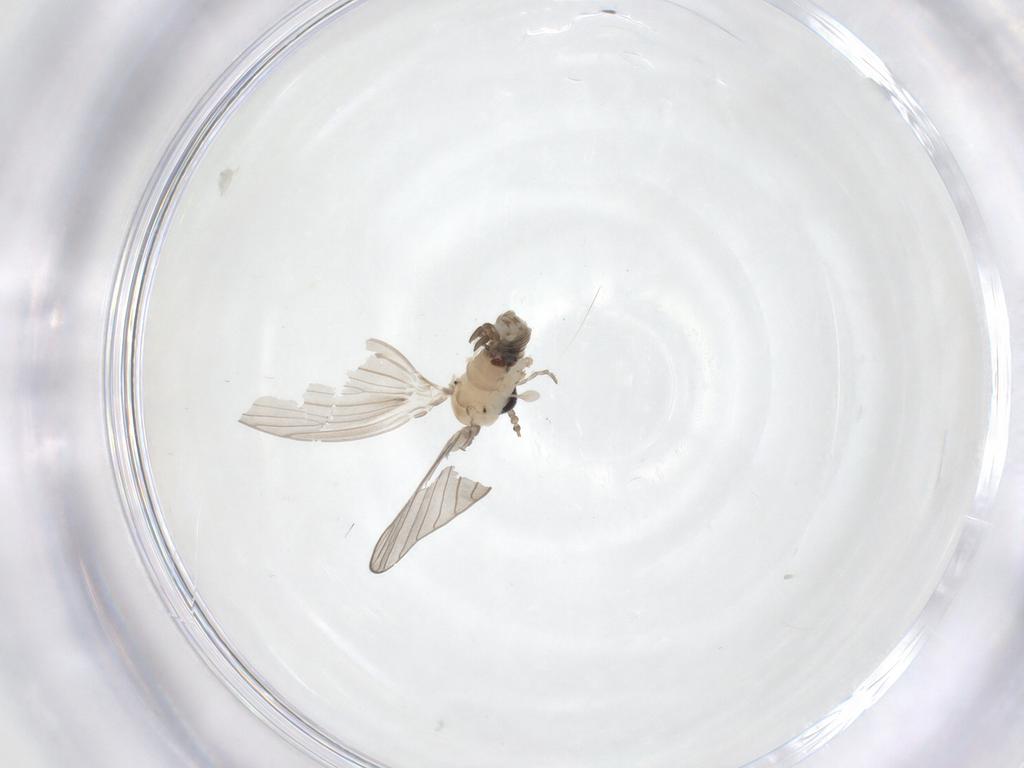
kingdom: Animalia
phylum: Arthropoda
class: Insecta
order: Diptera
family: Psychodidae
